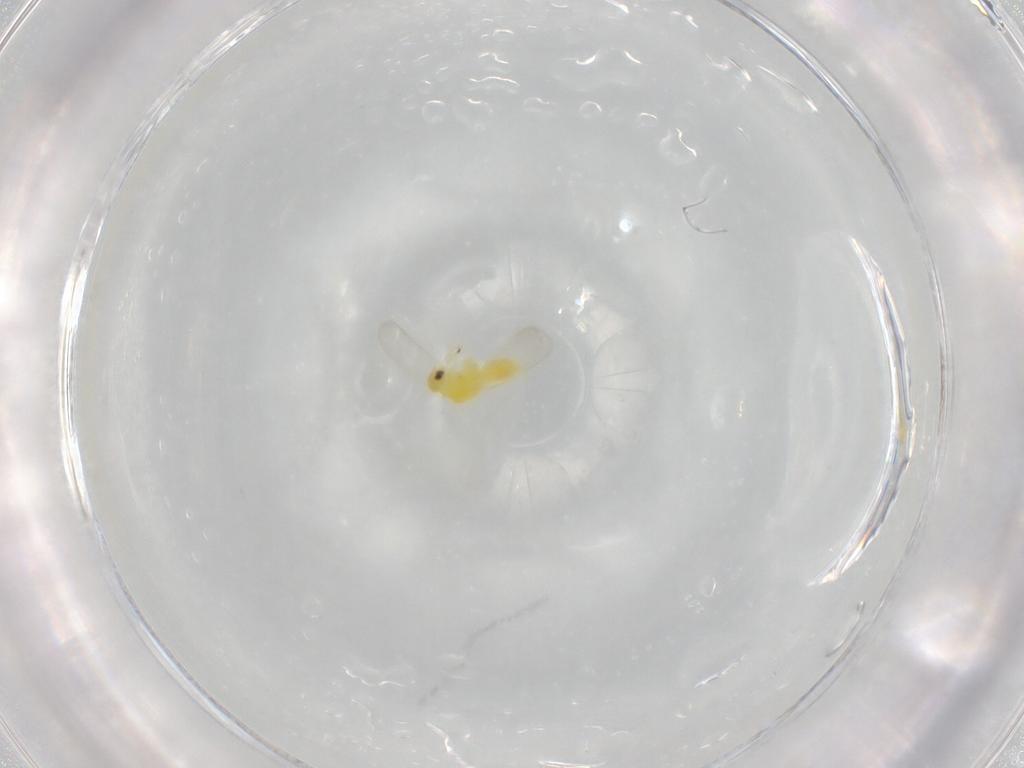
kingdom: Animalia
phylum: Arthropoda
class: Insecta
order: Hemiptera
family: Aleyrodidae
